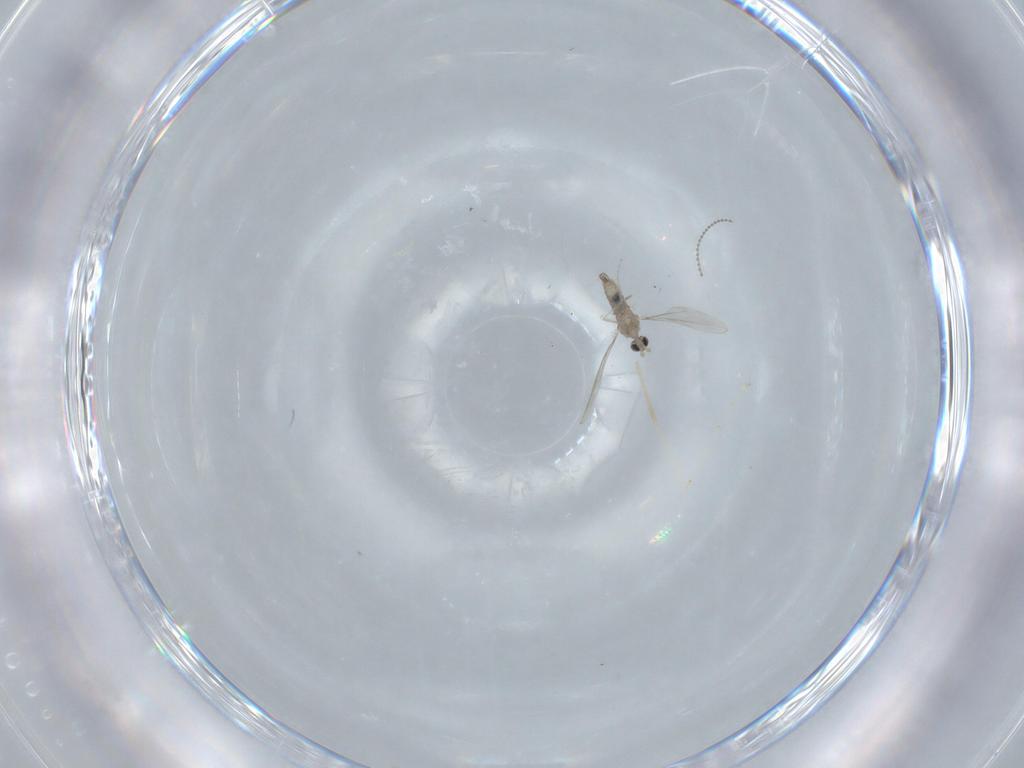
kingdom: Animalia
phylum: Arthropoda
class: Insecta
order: Diptera
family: Cecidomyiidae
